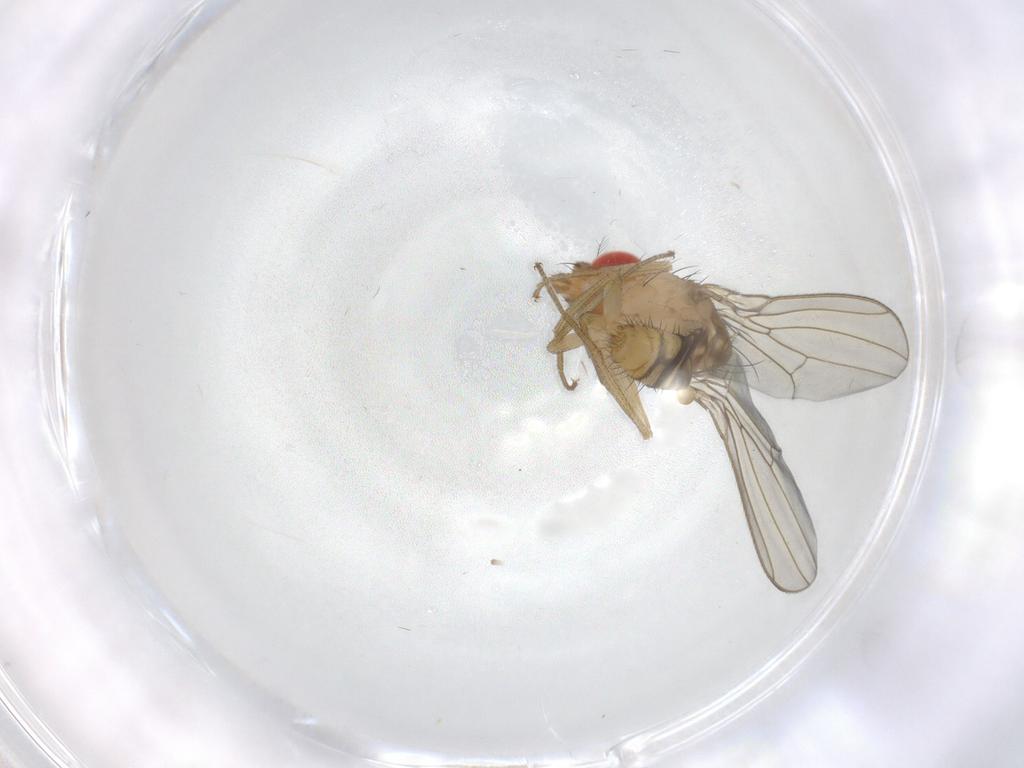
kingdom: Animalia
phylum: Arthropoda
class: Insecta
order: Diptera
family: Drosophilidae
